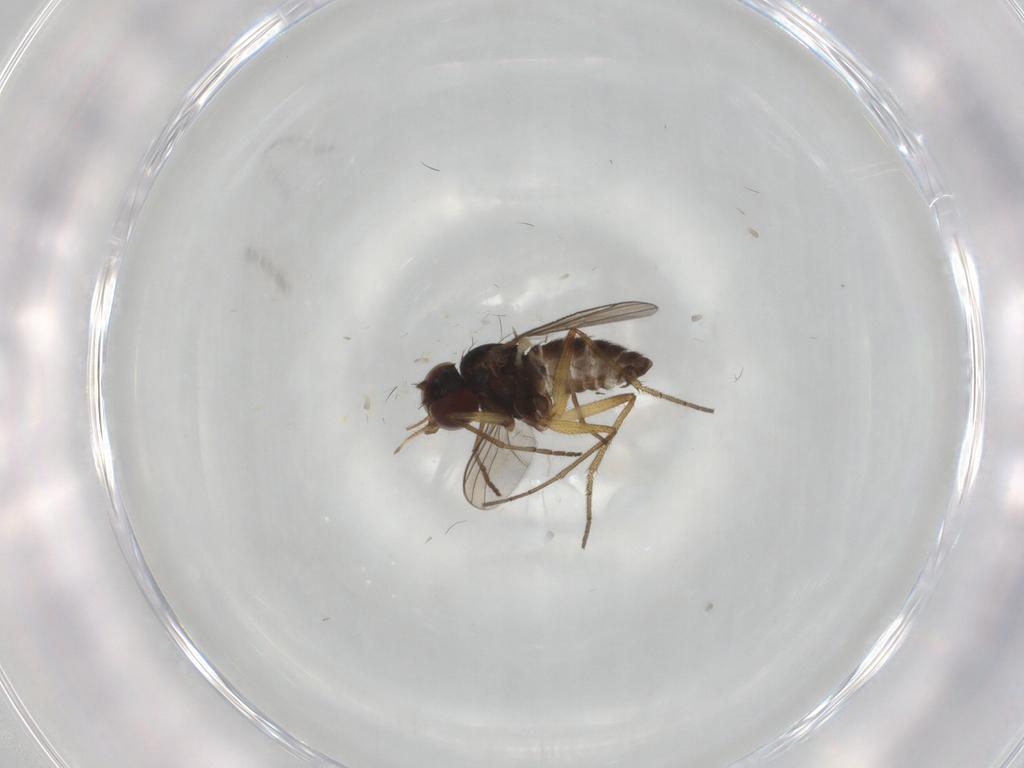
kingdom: Animalia
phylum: Arthropoda
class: Insecta
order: Diptera
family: Dolichopodidae
